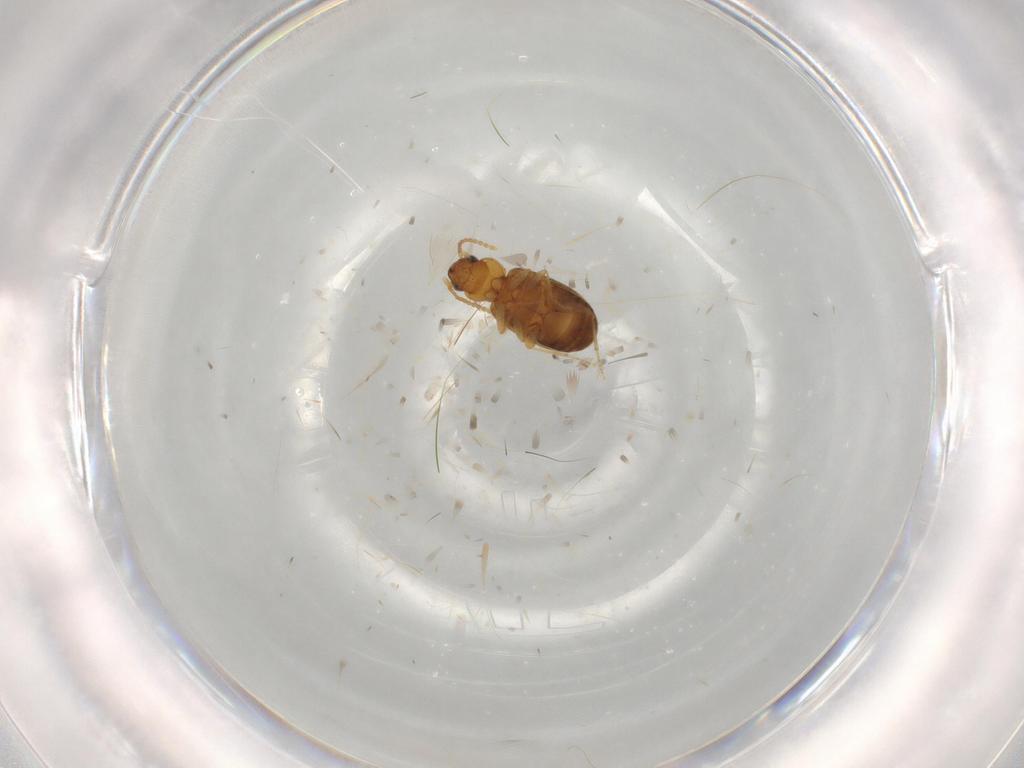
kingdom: Animalia
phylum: Arthropoda
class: Insecta
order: Coleoptera
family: Carabidae
